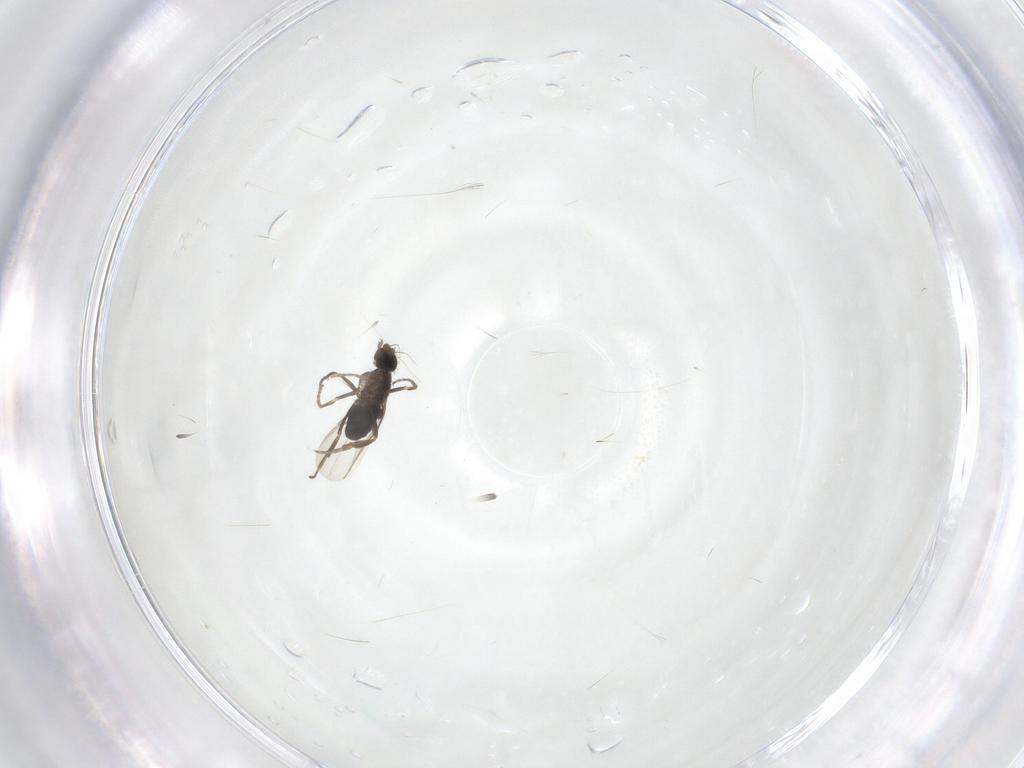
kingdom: Animalia
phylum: Arthropoda
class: Insecta
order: Diptera
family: Phoridae
